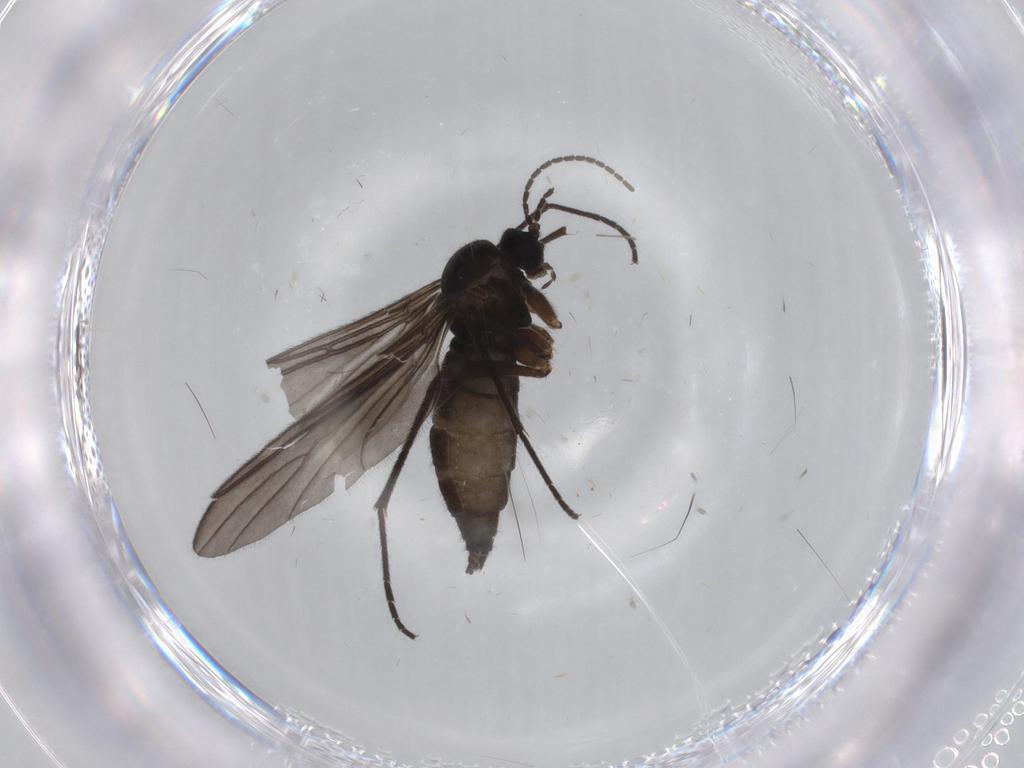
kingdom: Animalia
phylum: Arthropoda
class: Insecta
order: Diptera
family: Sciaridae
